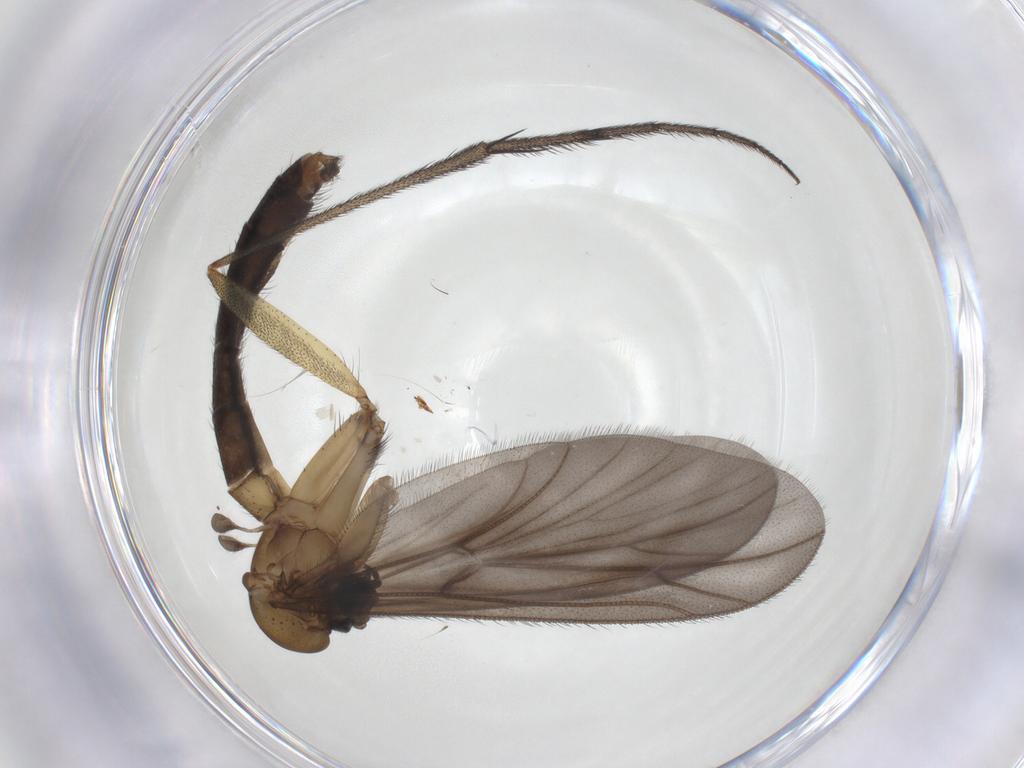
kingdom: Animalia
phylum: Arthropoda
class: Insecta
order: Diptera
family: Ditomyiidae
